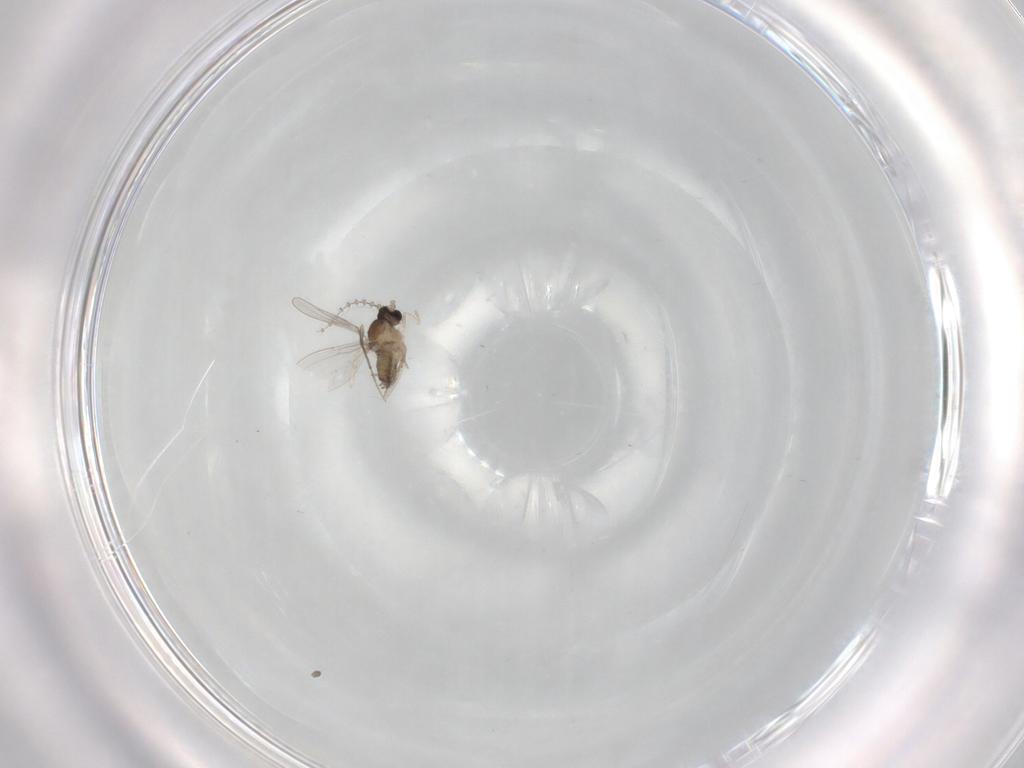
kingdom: Animalia
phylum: Arthropoda
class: Insecta
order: Diptera
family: Chironomidae
